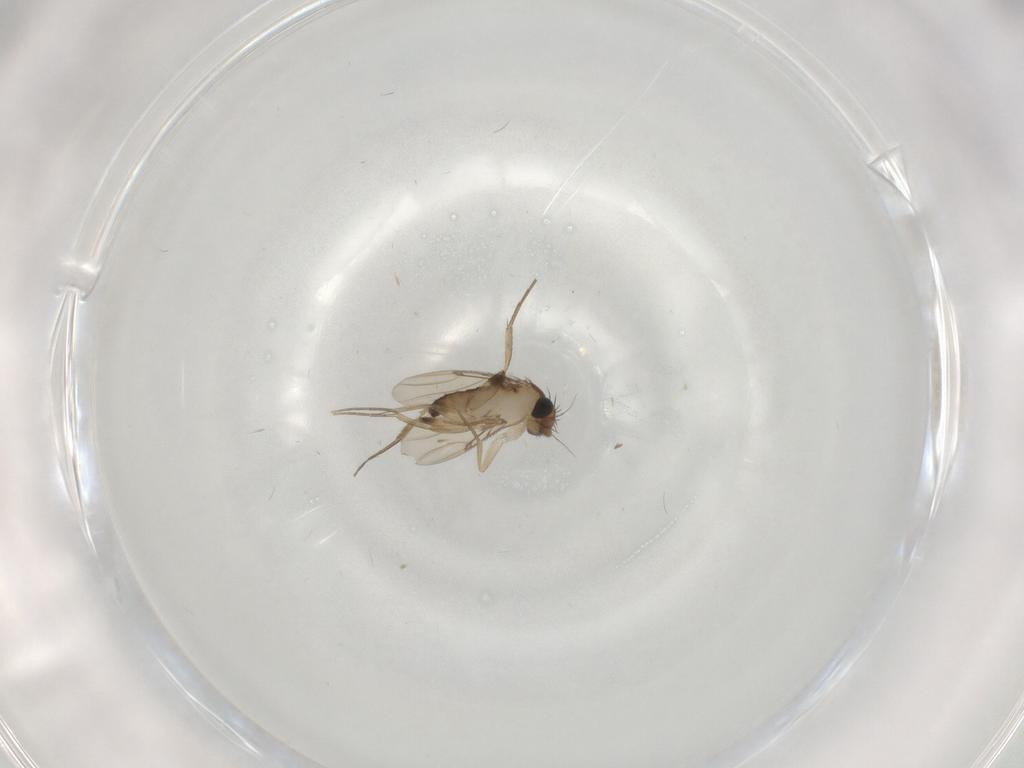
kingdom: Animalia
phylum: Arthropoda
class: Insecta
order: Diptera
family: Phoridae
